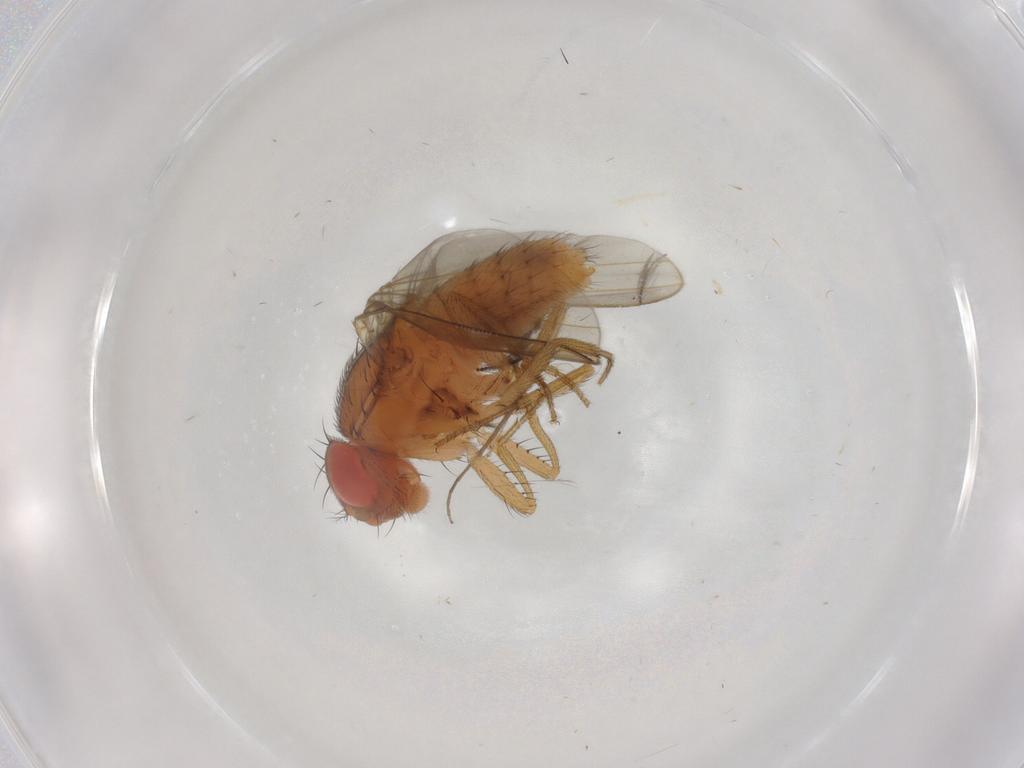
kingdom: Animalia
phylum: Arthropoda
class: Insecta
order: Diptera
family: Drosophilidae
